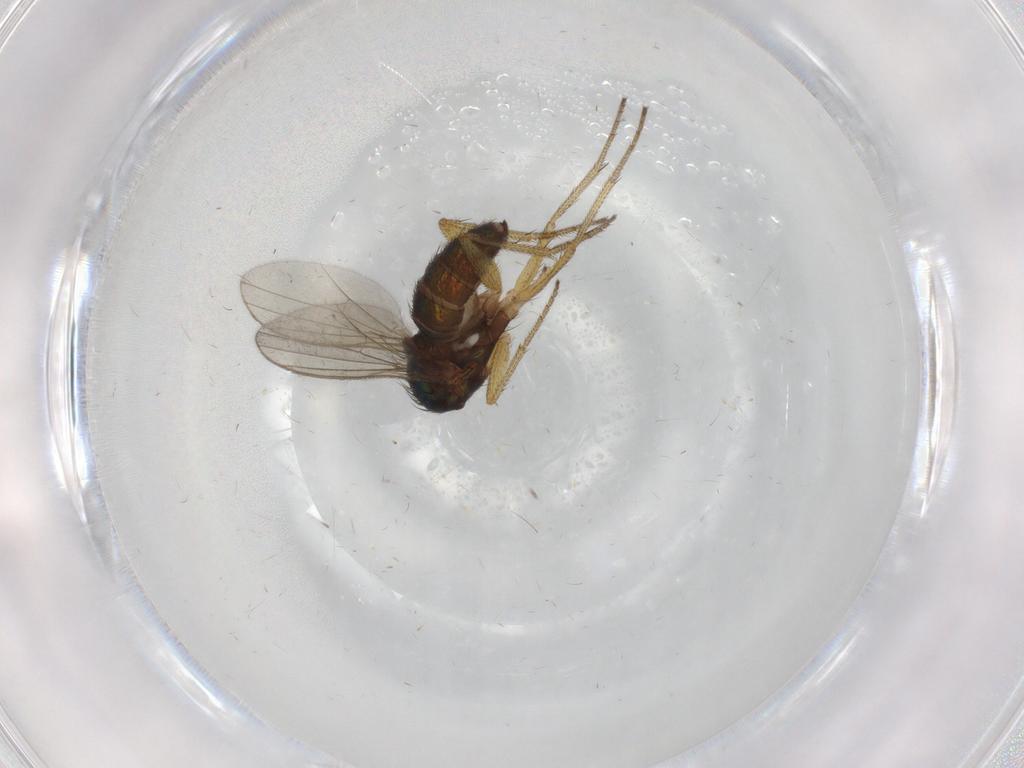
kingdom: Animalia
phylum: Arthropoda
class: Insecta
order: Diptera
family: Dolichopodidae
